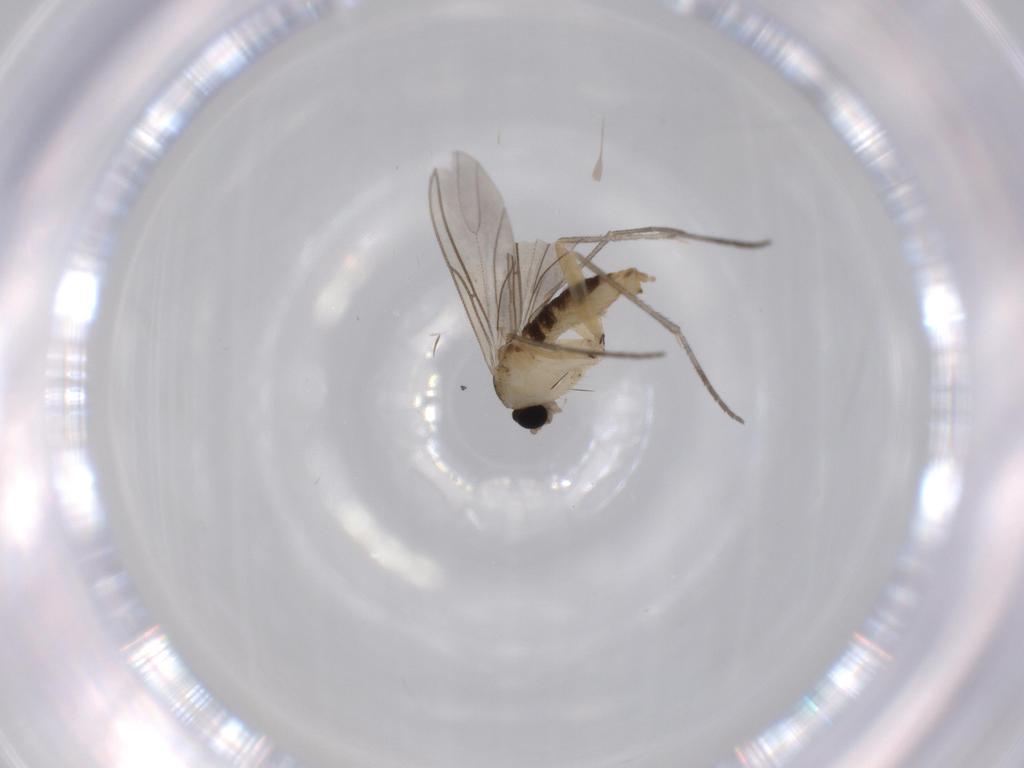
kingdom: Animalia
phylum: Arthropoda
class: Insecta
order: Diptera
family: Sciaridae
